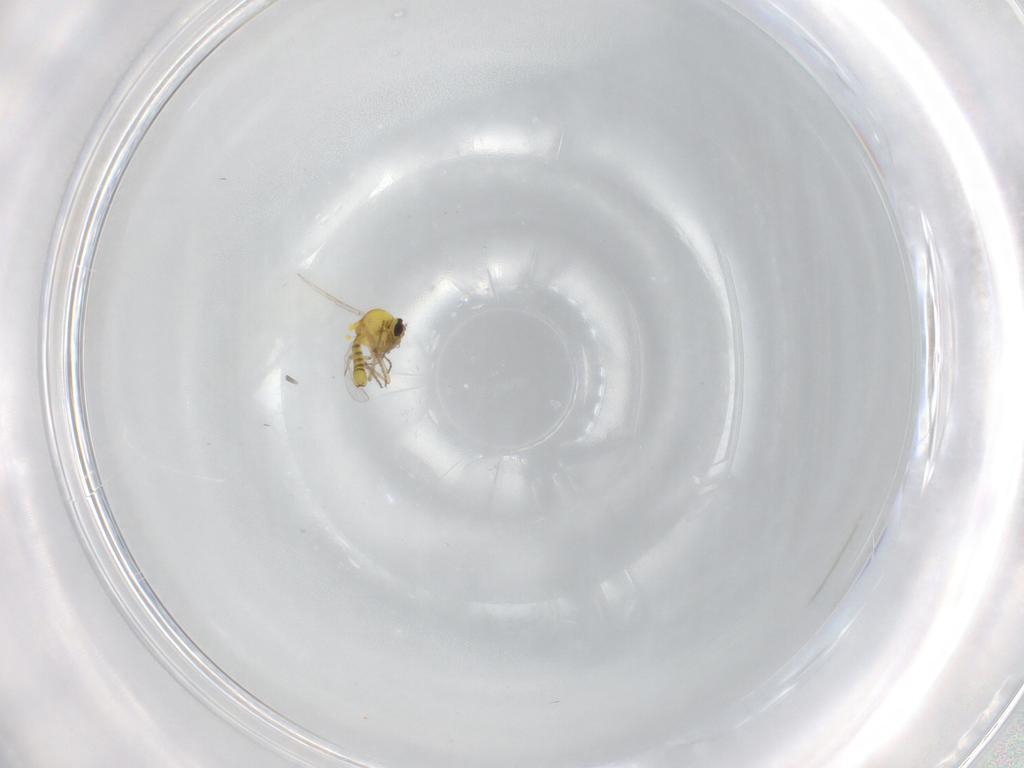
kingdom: Animalia
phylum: Arthropoda
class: Insecta
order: Diptera
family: Ceratopogonidae
